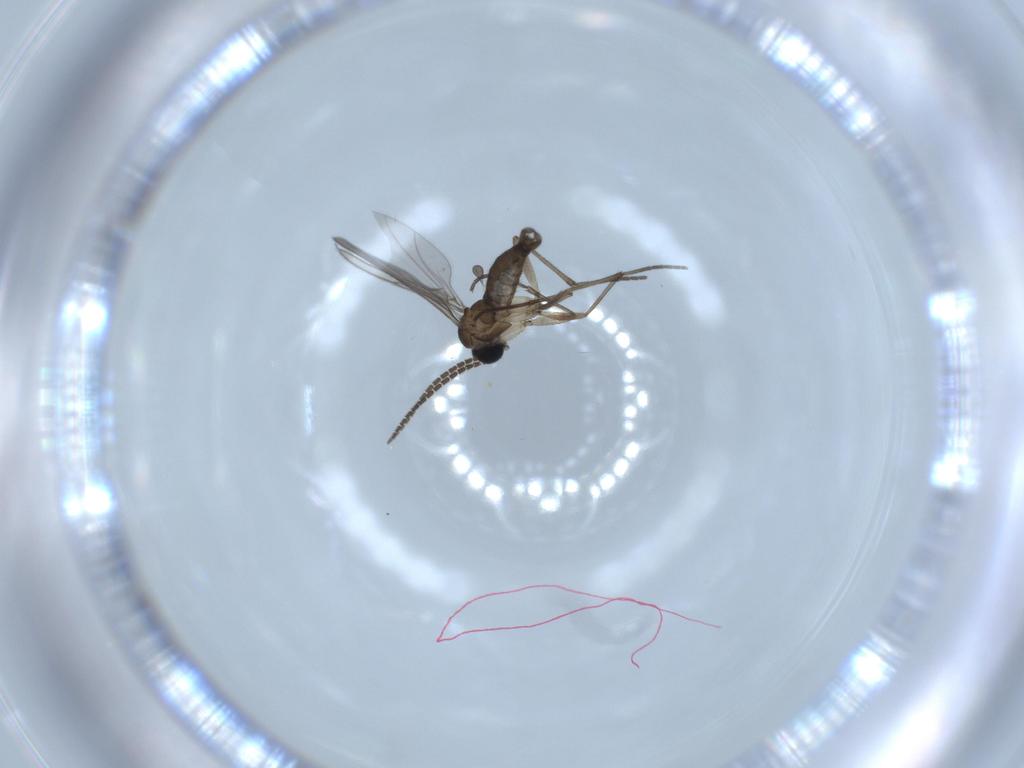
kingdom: Animalia
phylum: Arthropoda
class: Insecta
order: Diptera
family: Sciaridae
